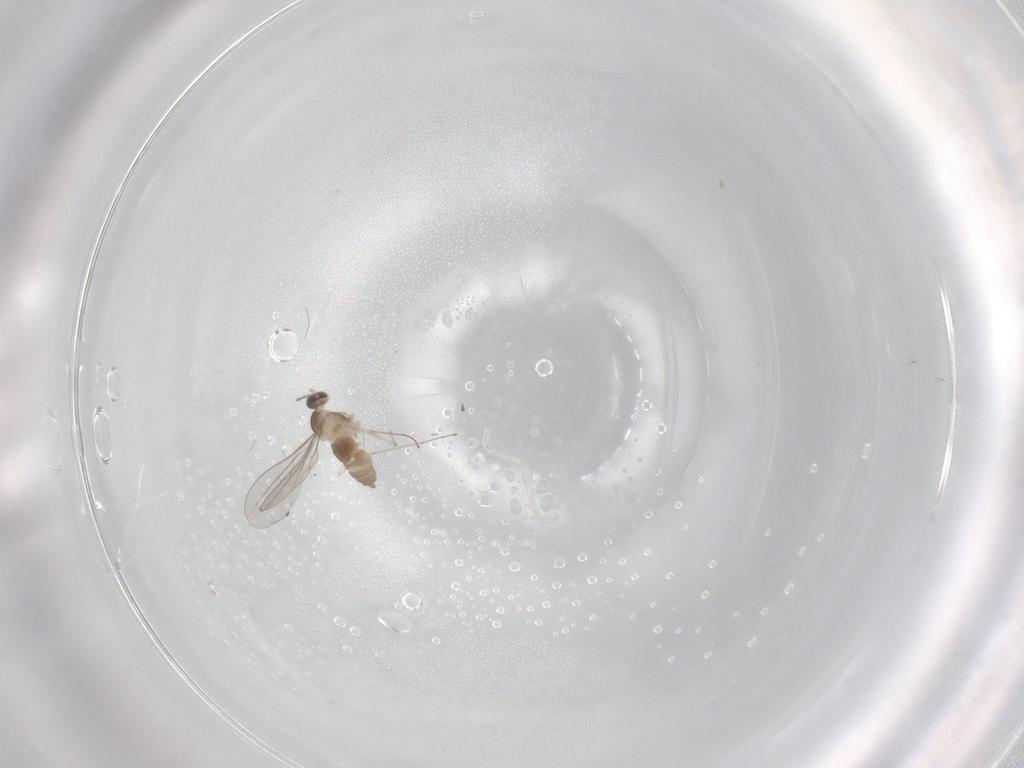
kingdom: Animalia
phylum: Arthropoda
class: Insecta
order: Diptera
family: Cecidomyiidae
